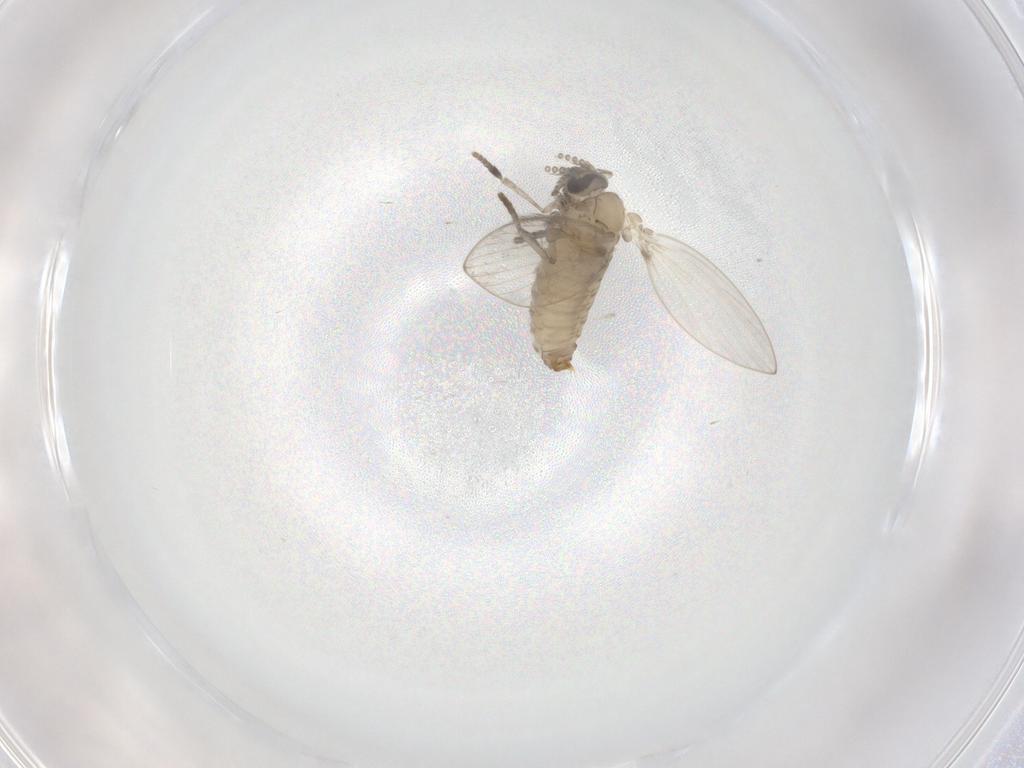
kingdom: Animalia
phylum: Arthropoda
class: Insecta
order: Diptera
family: Psychodidae
